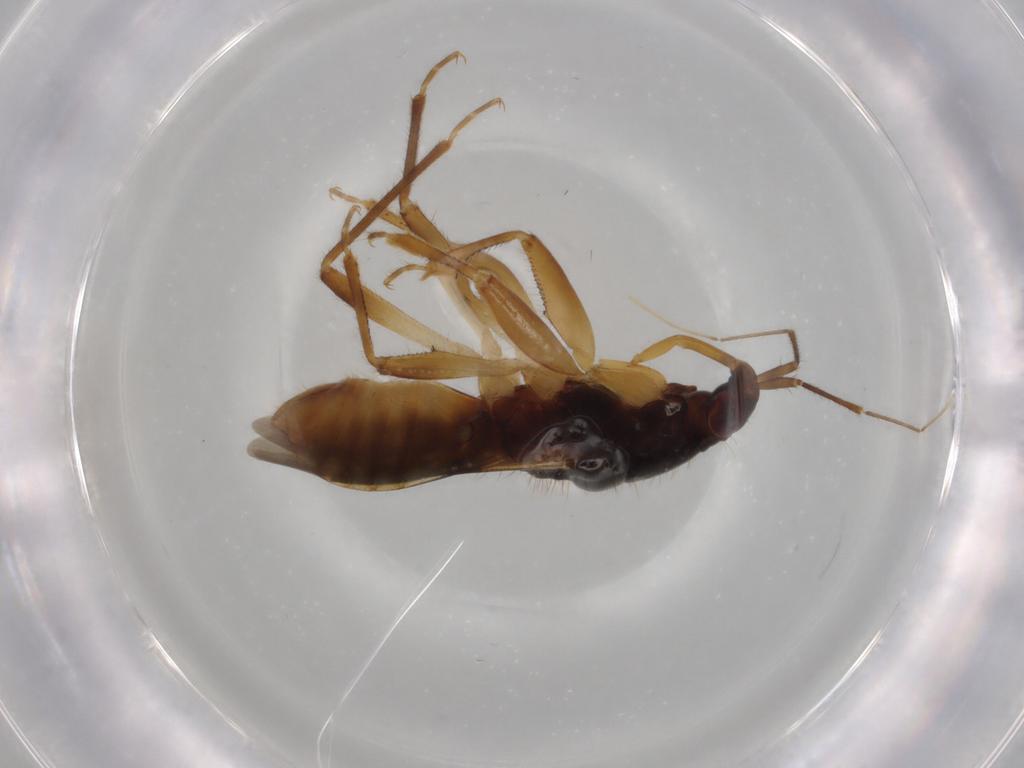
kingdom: Animalia
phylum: Arthropoda
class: Insecta
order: Hemiptera
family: Nabidae
